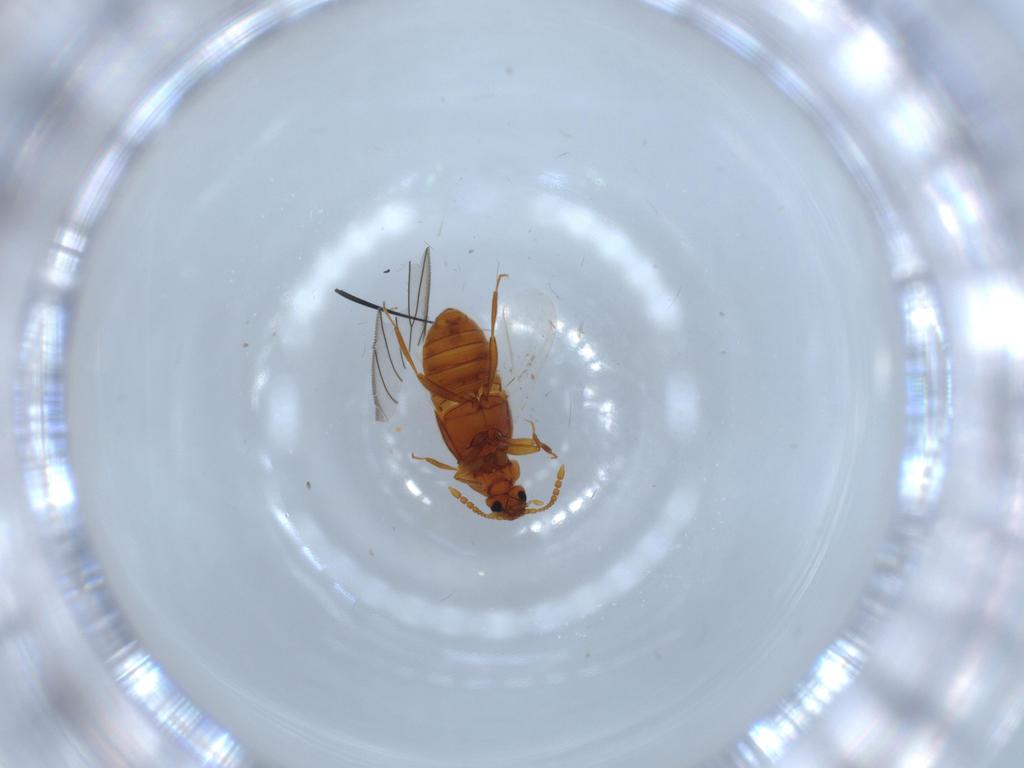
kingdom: Animalia
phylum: Arthropoda
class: Insecta
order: Coleoptera
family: Staphylinidae
